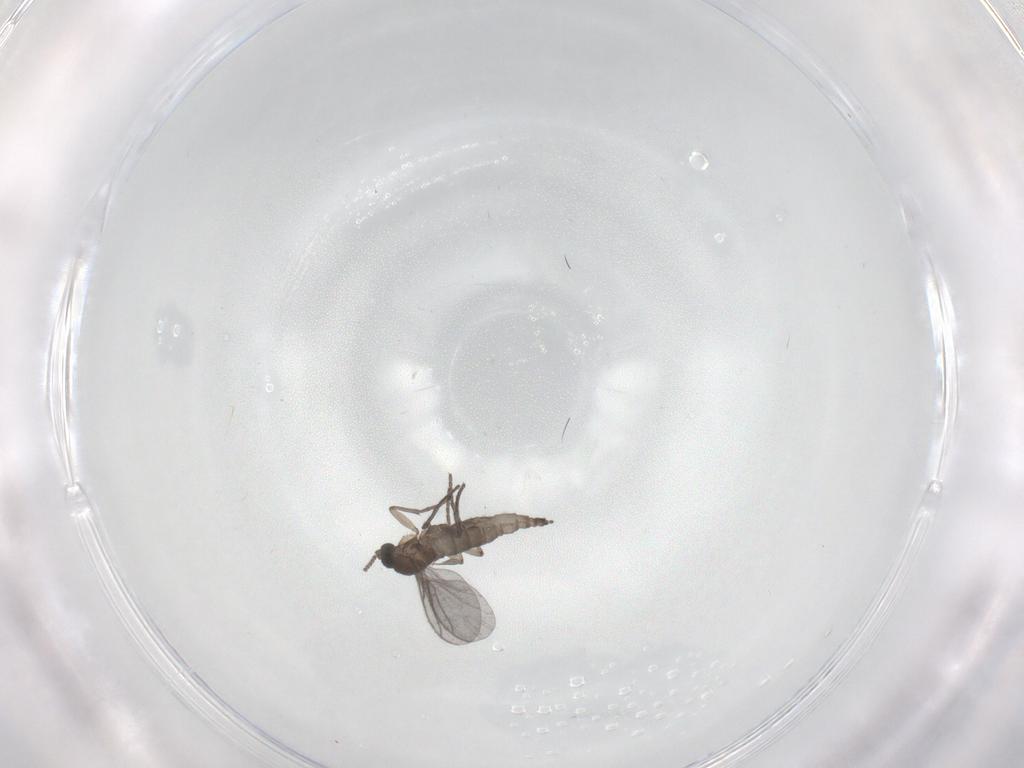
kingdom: Animalia
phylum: Arthropoda
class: Insecta
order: Diptera
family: Sciaridae
